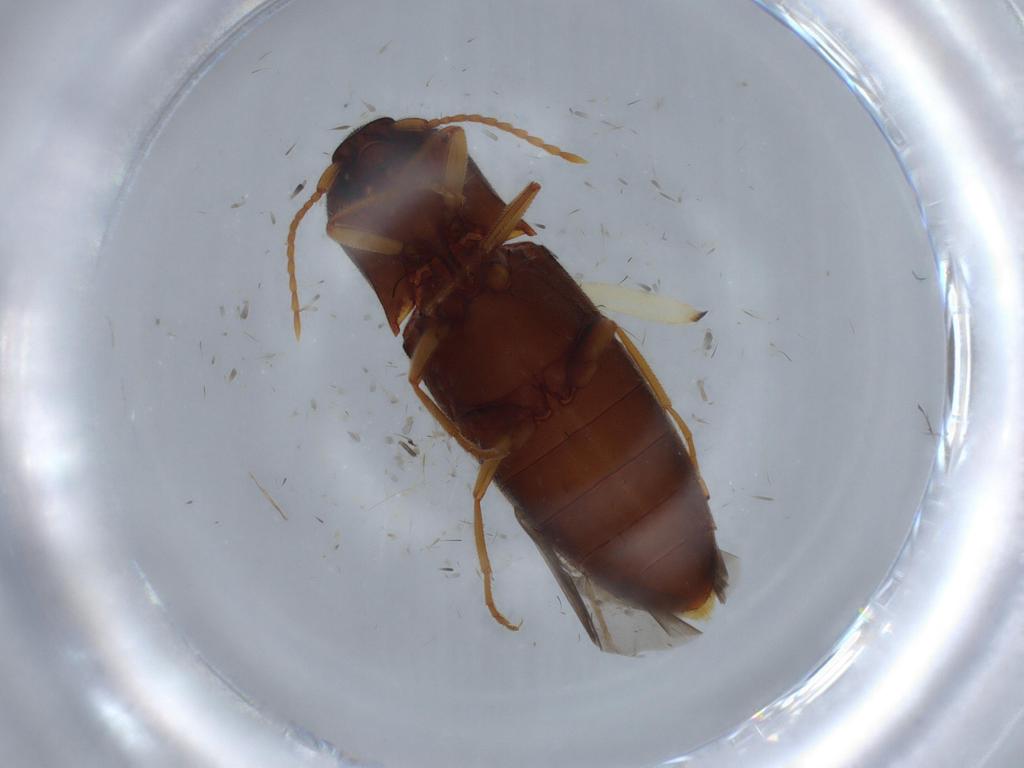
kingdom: Animalia
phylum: Arthropoda
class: Insecta
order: Coleoptera
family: Elateridae
